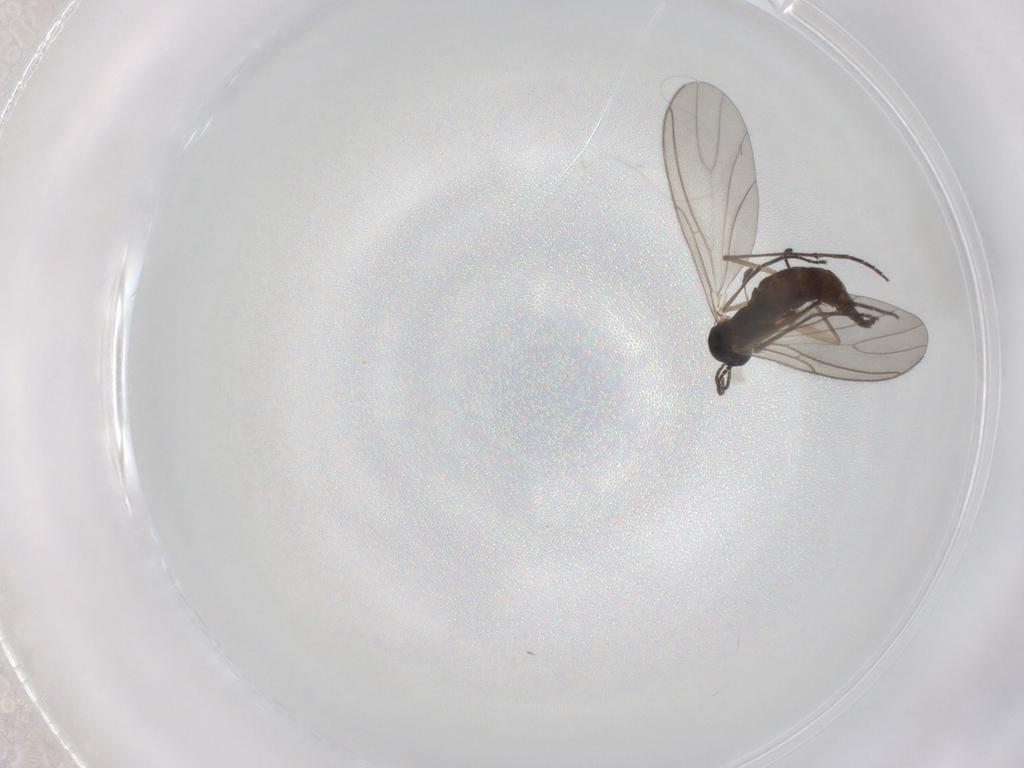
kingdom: Animalia
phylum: Arthropoda
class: Insecta
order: Diptera
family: Sciaridae
